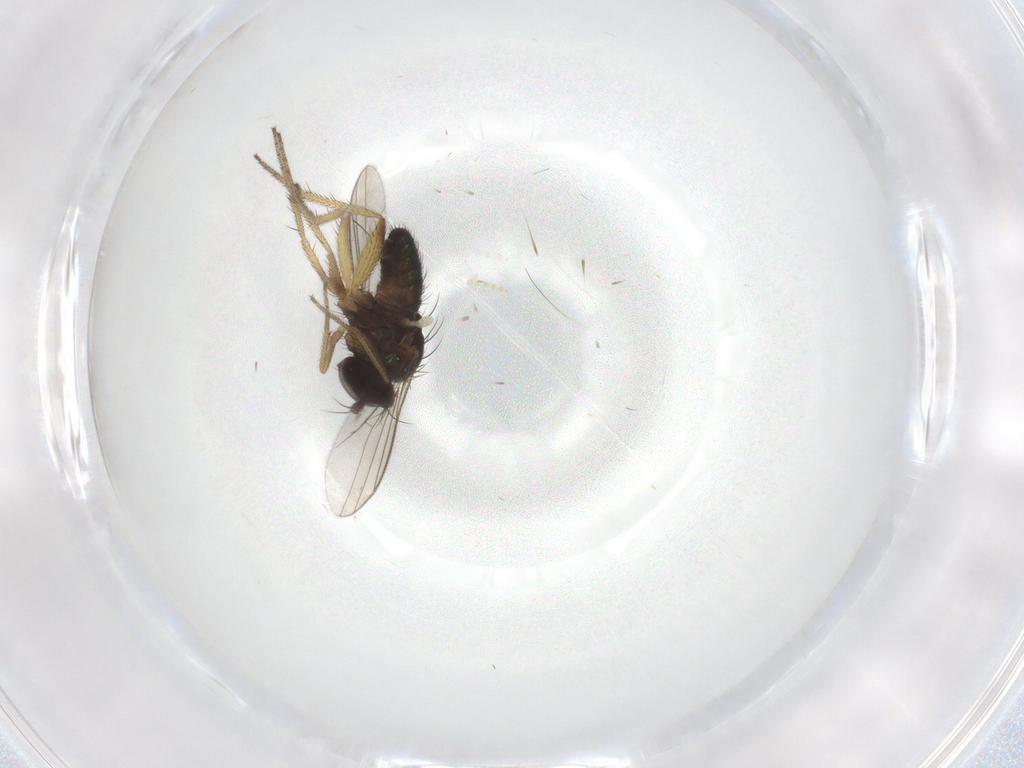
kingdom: Animalia
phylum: Arthropoda
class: Insecta
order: Diptera
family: Cecidomyiidae
